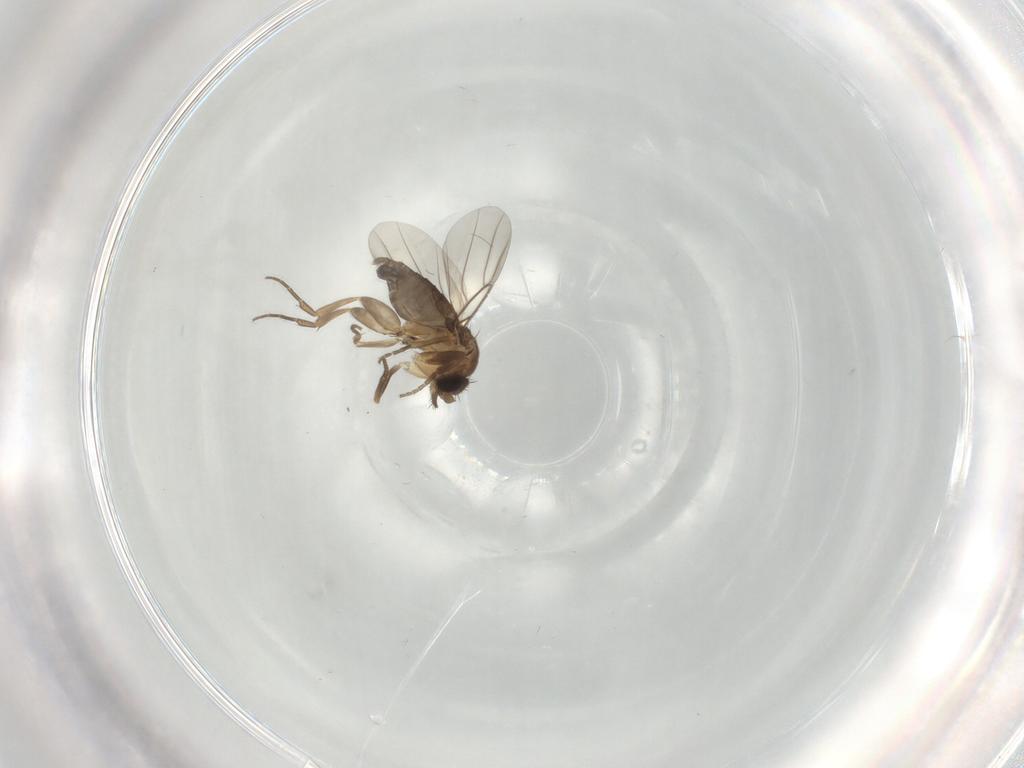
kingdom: Animalia
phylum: Arthropoda
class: Insecta
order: Diptera
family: Phoridae
